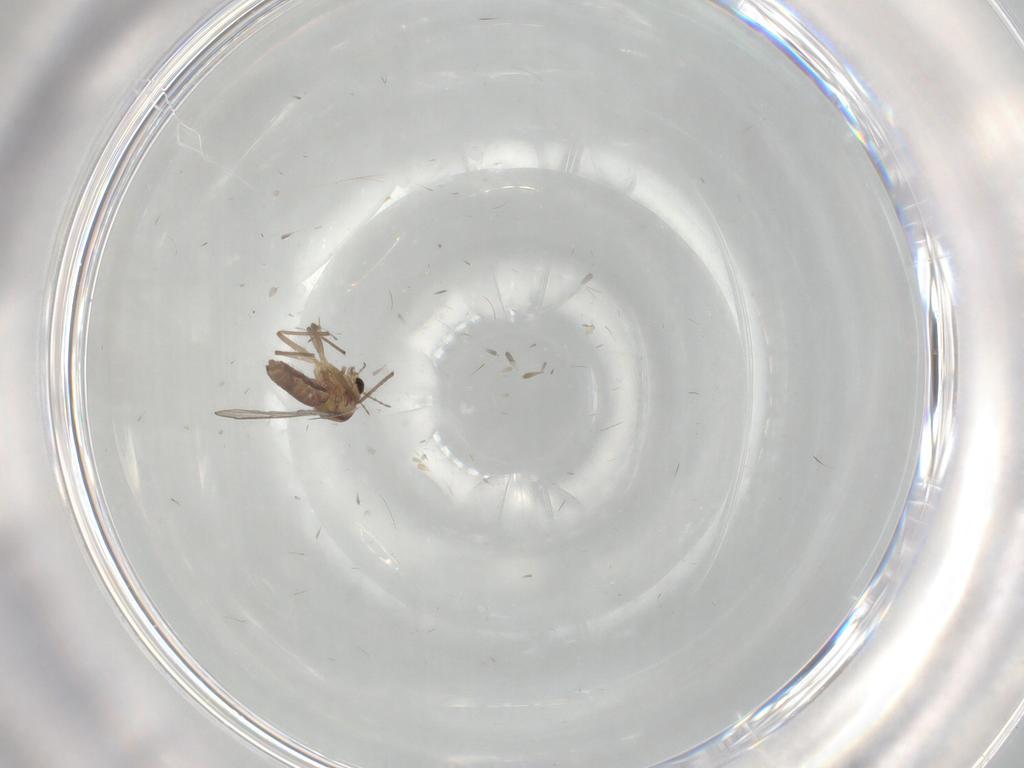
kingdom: Animalia
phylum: Arthropoda
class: Insecta
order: Diptera
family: Chironomidae
